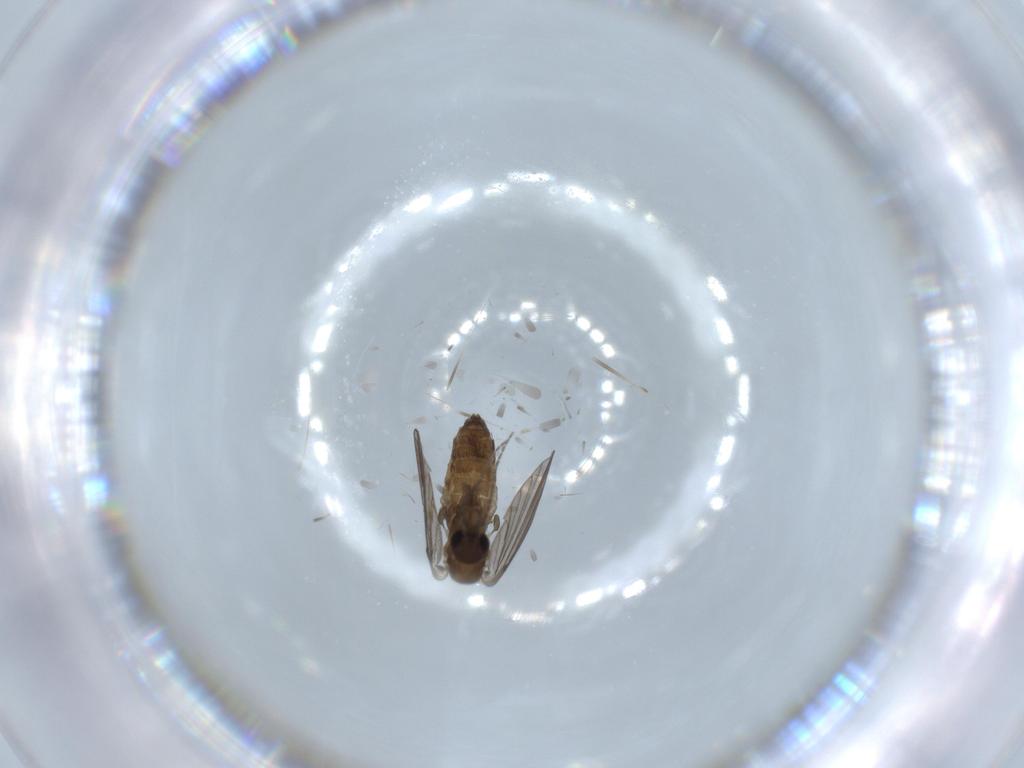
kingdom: Animalia
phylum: Arthropoda
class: Insecta
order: Diptera
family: Psychodidae
